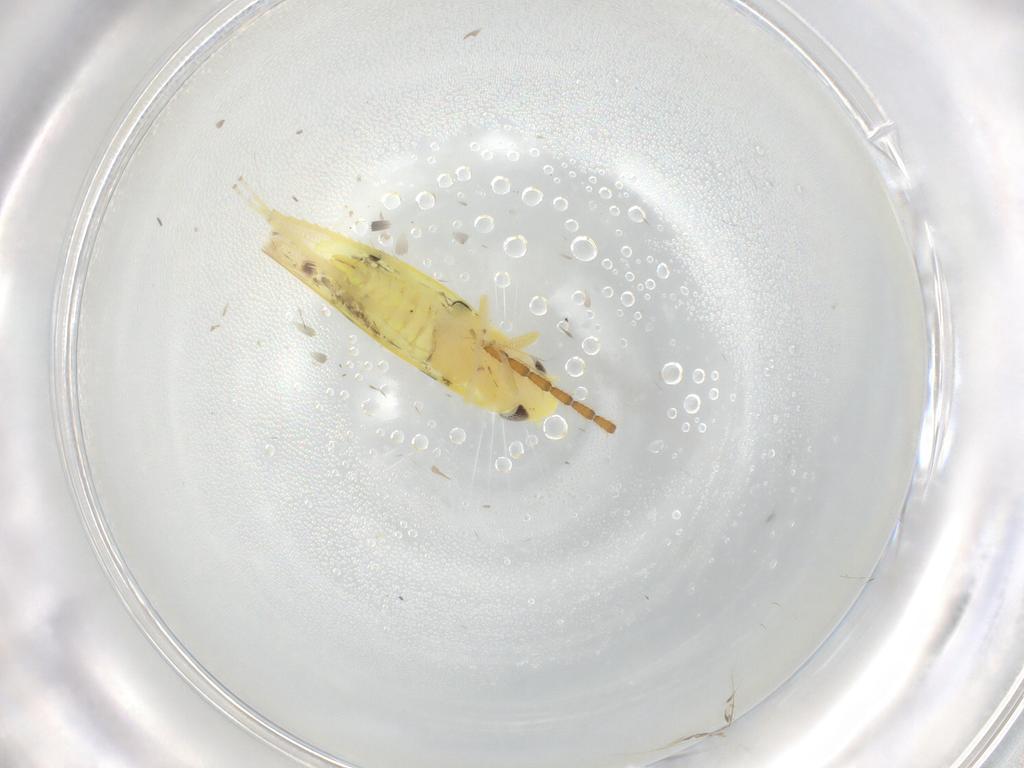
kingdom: Animalia
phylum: Arthropoda
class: Insecta
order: Hemiptera
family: Cicadellidae
